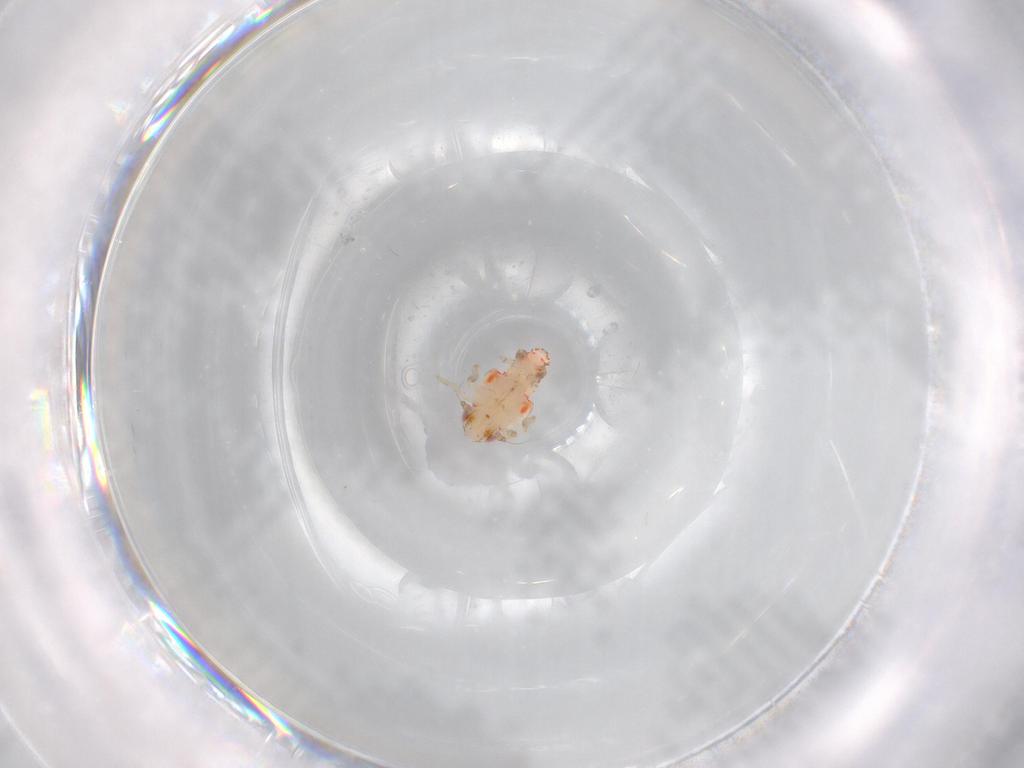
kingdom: Animalia
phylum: Arthropoda
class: Insecta
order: Hemiptera
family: Nogodinidae
